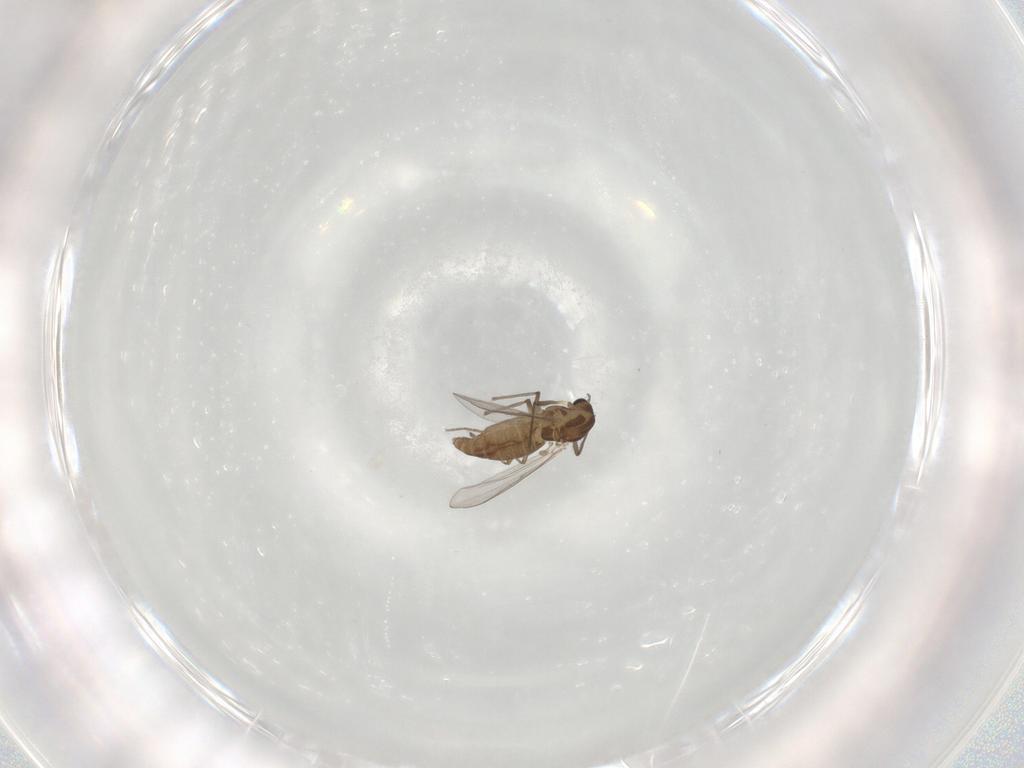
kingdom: Animalia
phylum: Arthropoda
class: Insecta
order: Diptera
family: Chironomidae
